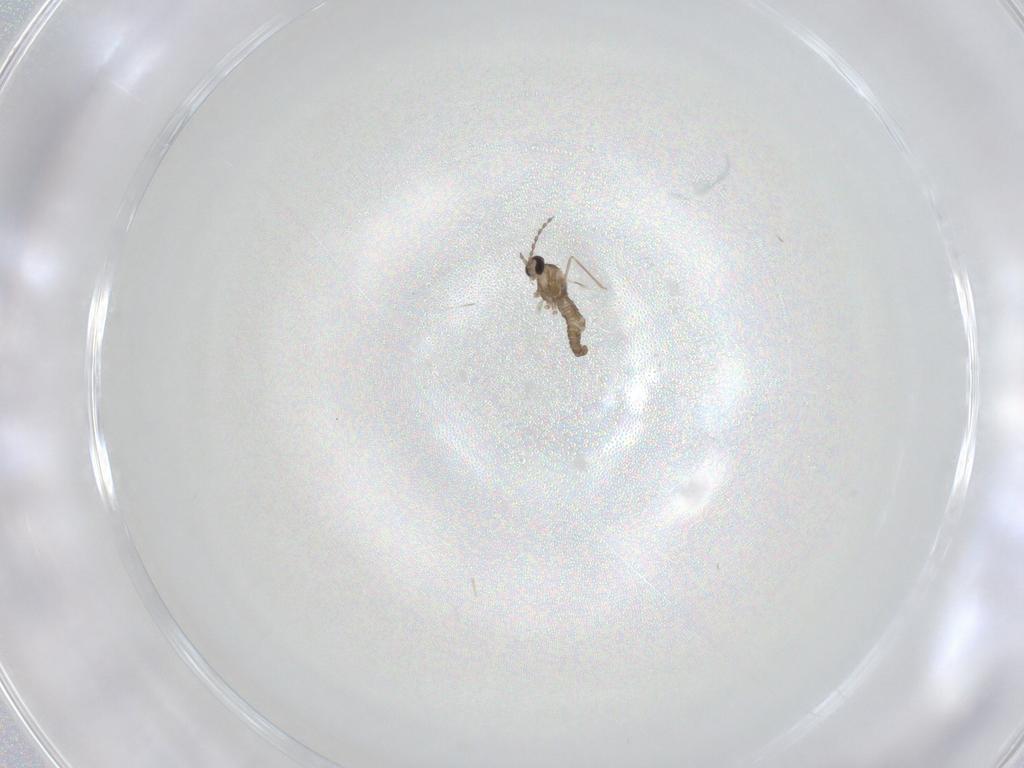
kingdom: Animalia
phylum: Arthropoda
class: Insecta
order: Diptera
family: Cecidomyiidae
